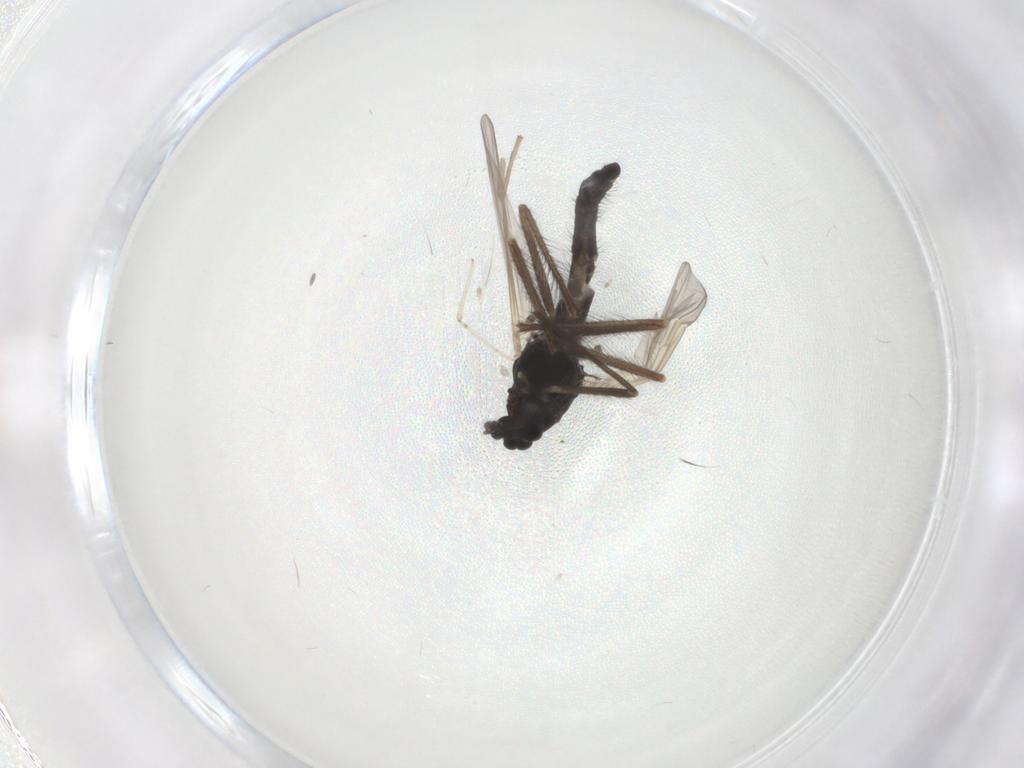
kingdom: Animalia
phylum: Arthropoda
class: Insecta
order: Diptera
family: Chironomidae
